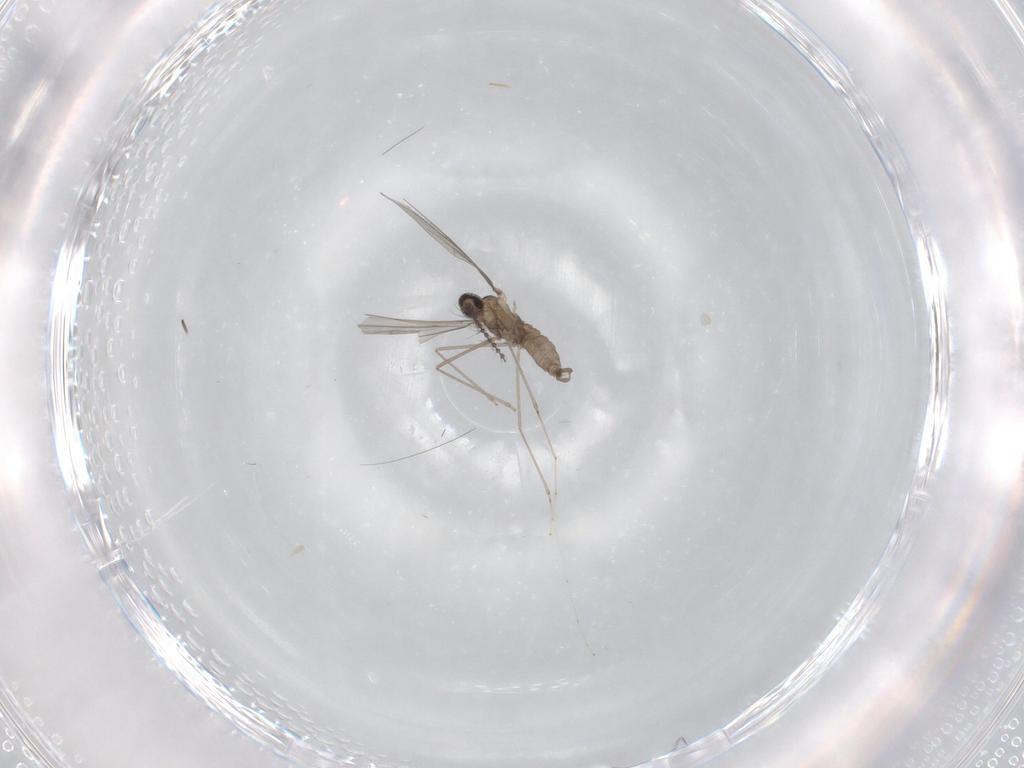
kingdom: Animalia
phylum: Arthropoda
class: Insecta
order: Diptera
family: Cecidomyiidae
